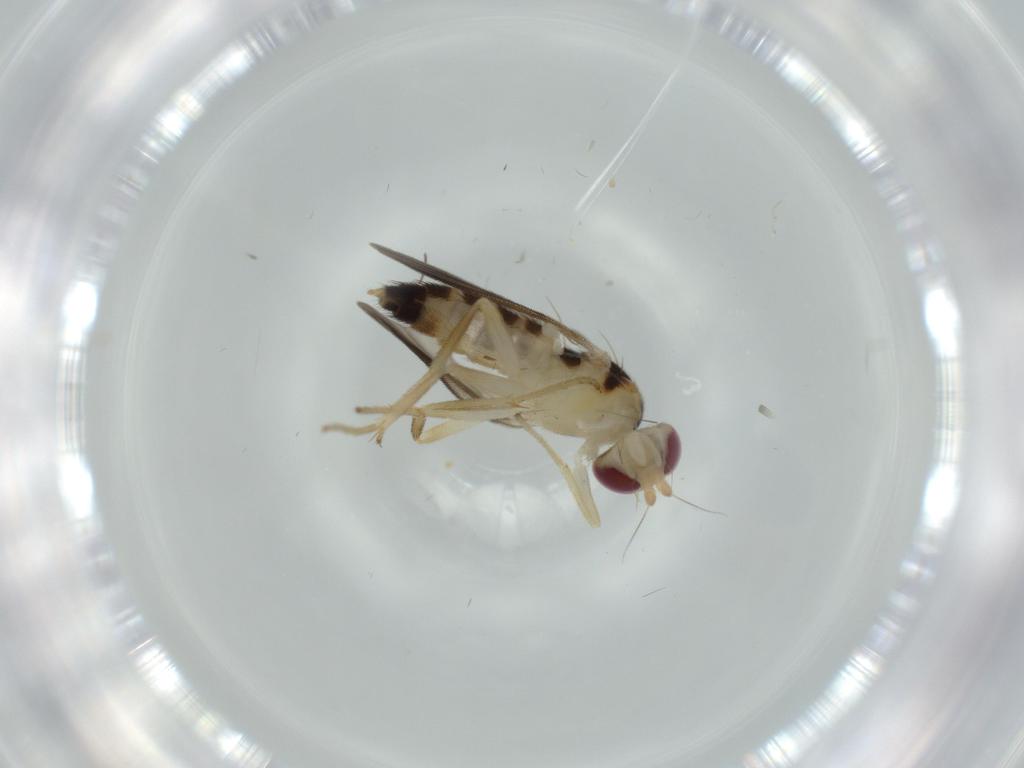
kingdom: Animalia
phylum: Arthropoda
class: Insecta
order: Diptera
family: Clusiidae
